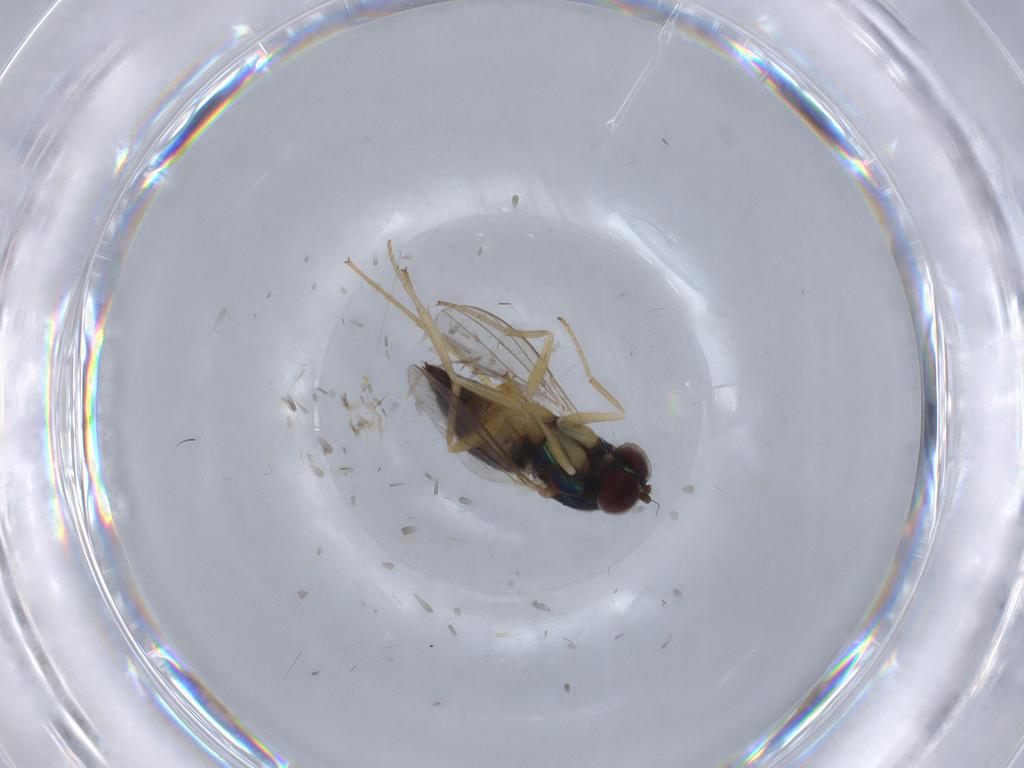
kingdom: Animalia
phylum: Arthropoda
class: Insecta
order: Diptera
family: Dolichopodidae
